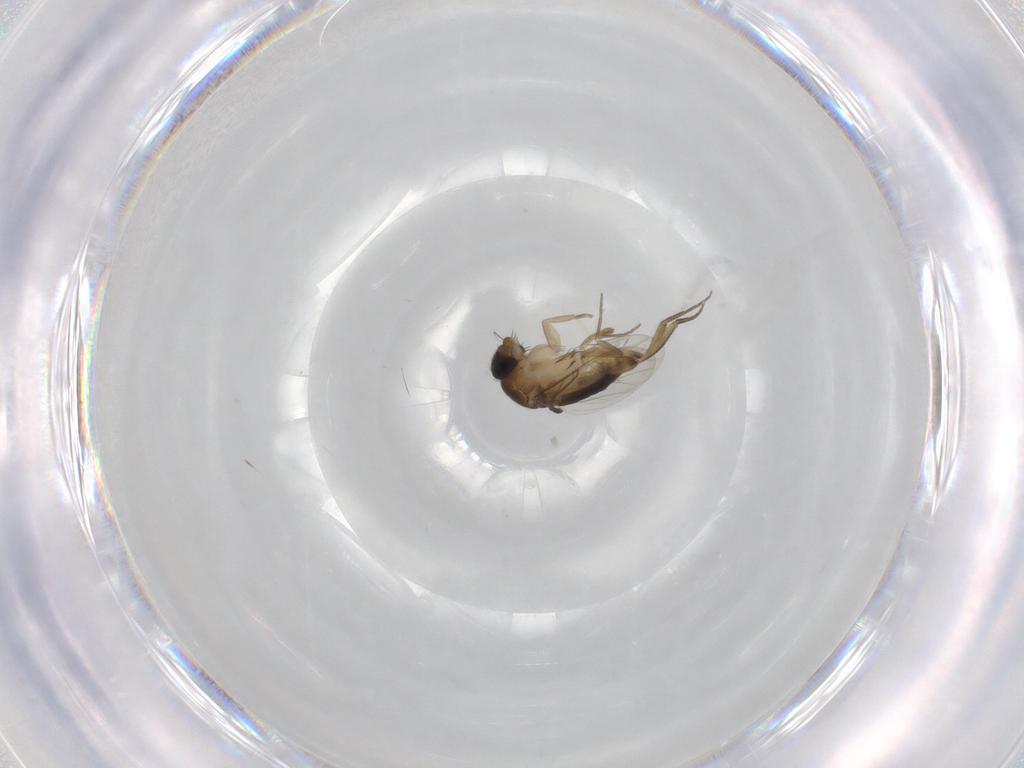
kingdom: Animalia
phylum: Arthropoda
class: Insecta
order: Diptera
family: Phoridae
